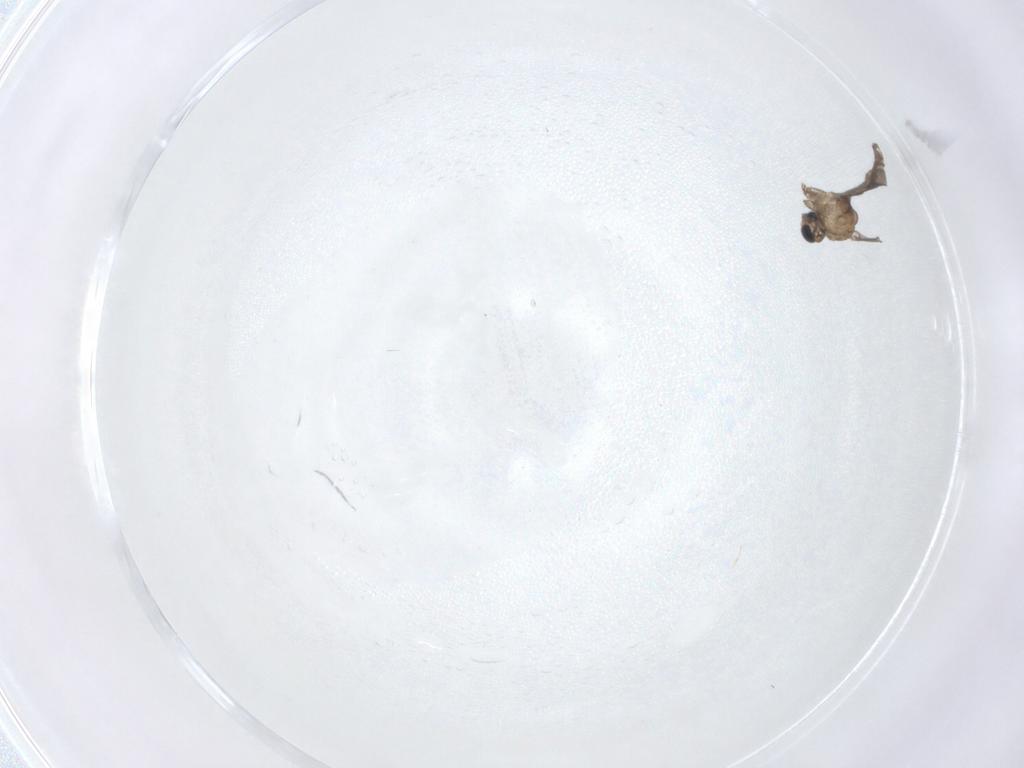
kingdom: Animalia
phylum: Arthropoda
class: Insecta
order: Diptera
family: Sciaridae
